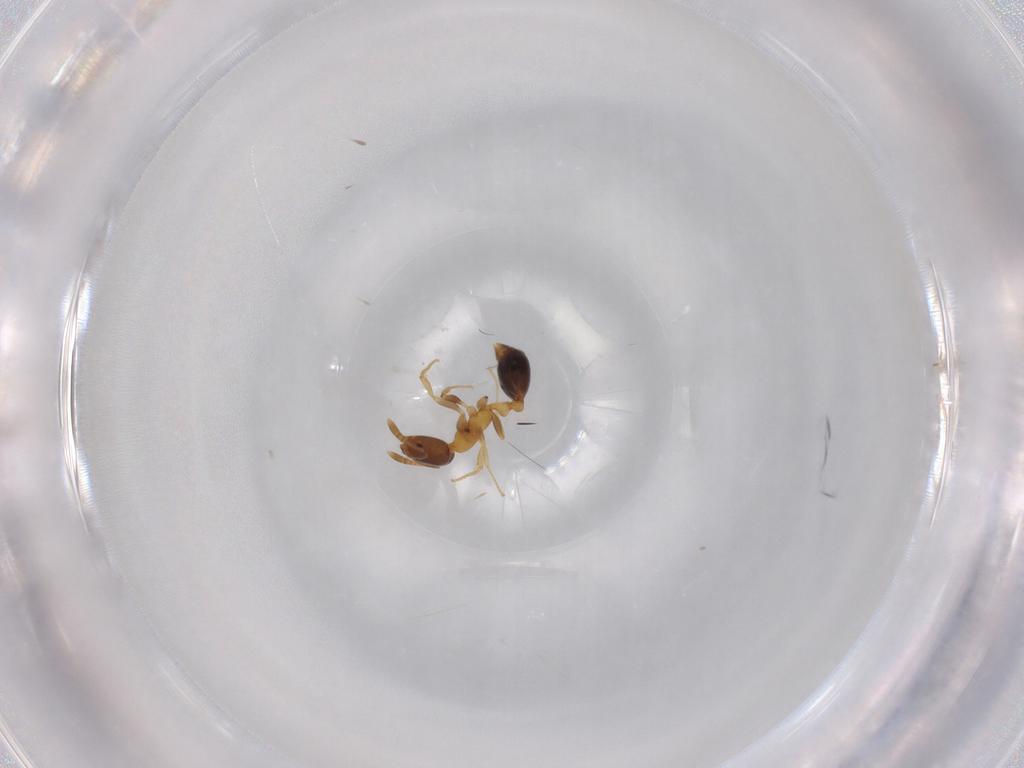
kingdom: Animalia
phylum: Arthropoda
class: Insecta
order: Hymenoptera
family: Formicidae
